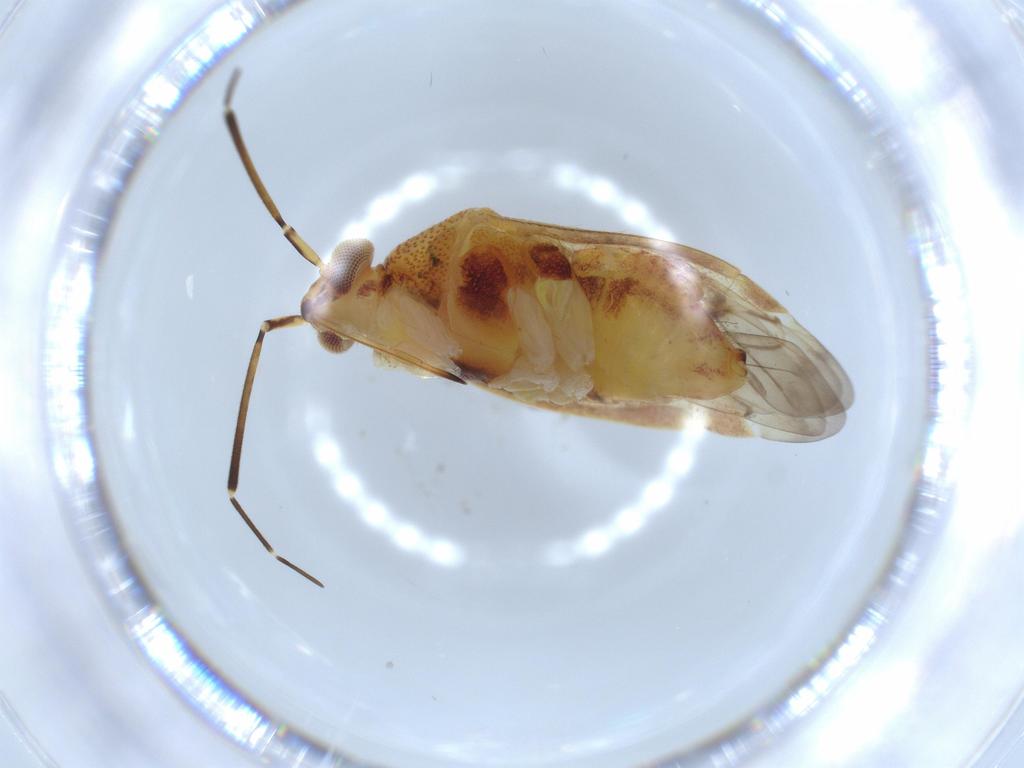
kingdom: Animalia
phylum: Arthropoda
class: Insecta
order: Hemiptera
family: Miridae
